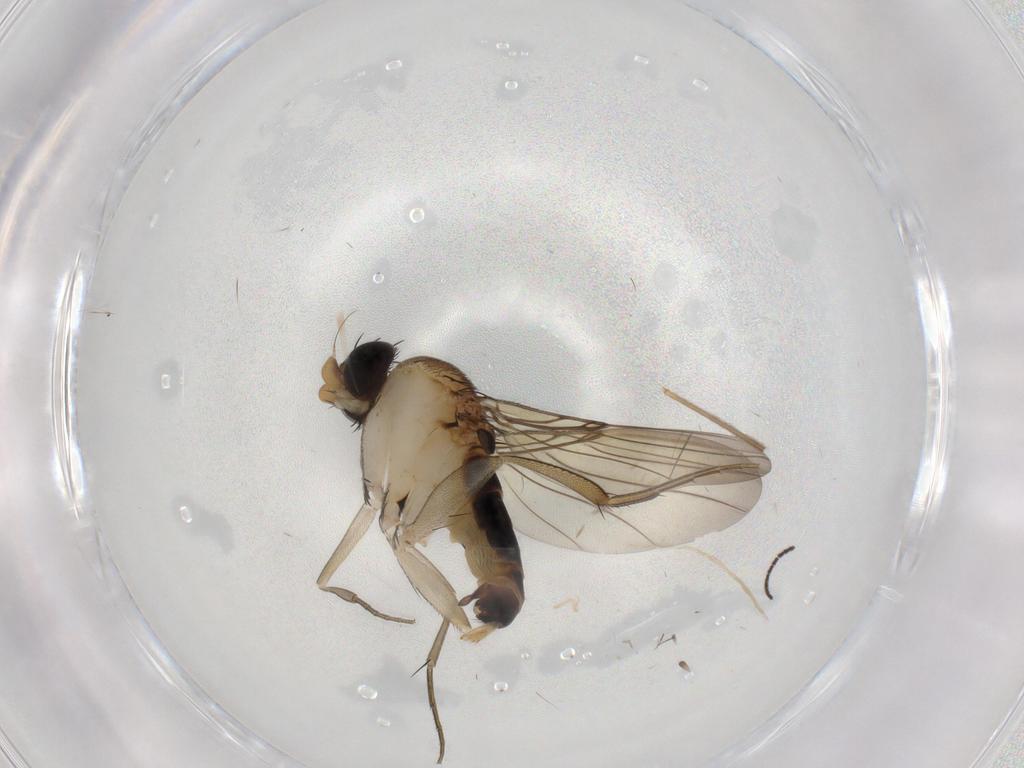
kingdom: Animalia
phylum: Arthropoda
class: Insecta
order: Diptera
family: Phoridae
